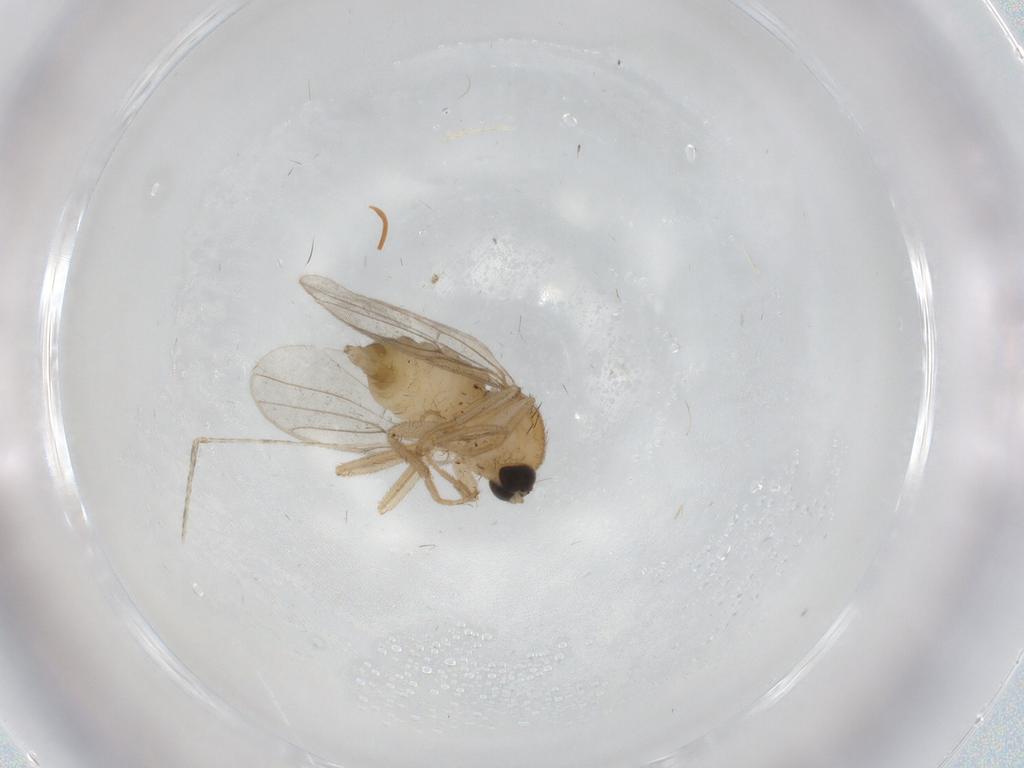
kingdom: Animalia
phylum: Arthropoda
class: Insecta
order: Diptera
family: Hybotidae
